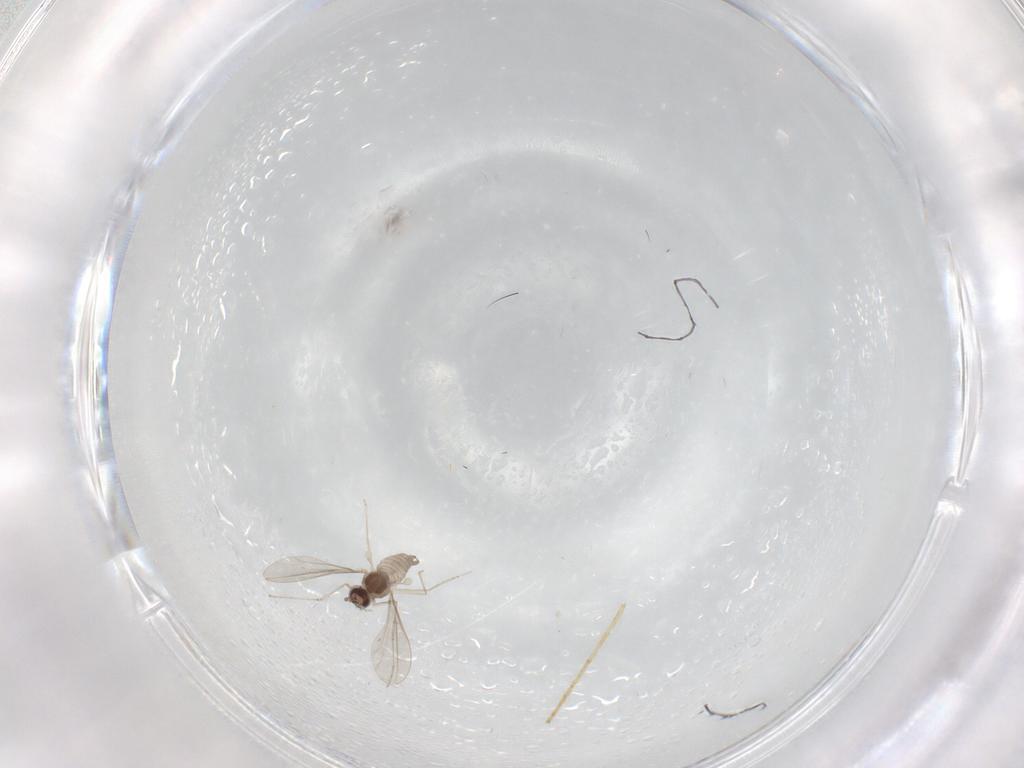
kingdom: Animalia
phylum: Arthropoda
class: Insecta
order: Diptera
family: Cecidomyiidae
